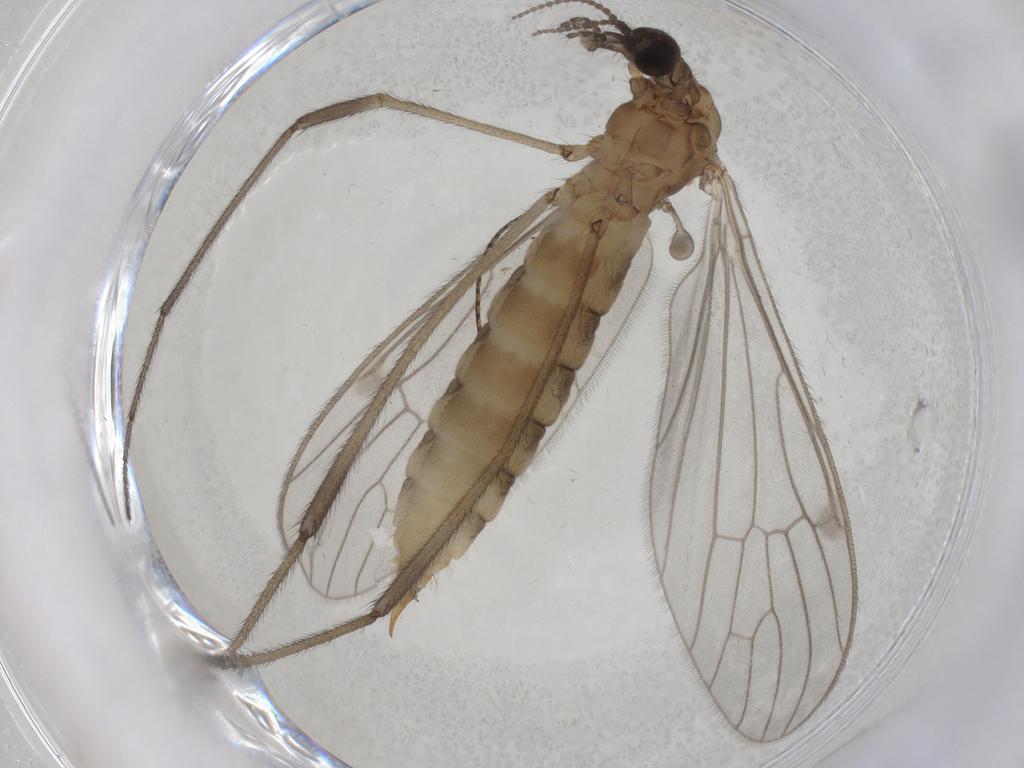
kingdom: Animalia
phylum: Arthropoda
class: Insecta
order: Diptera
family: Limoniidae
